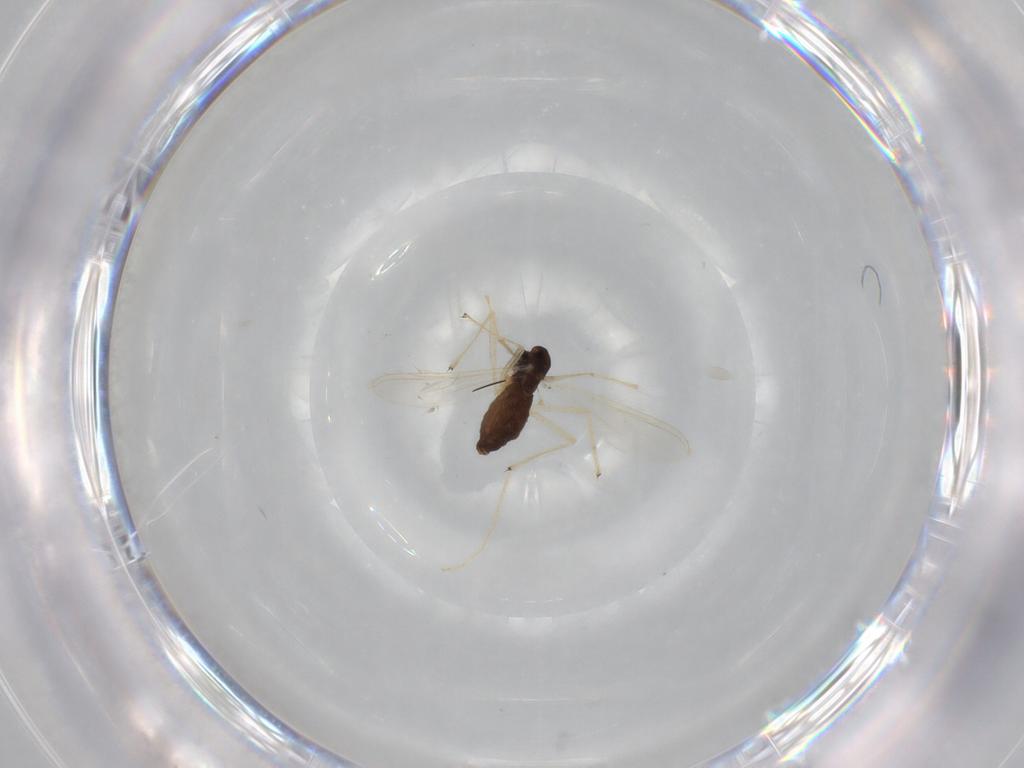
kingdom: Animalia
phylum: Arthropoda
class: Insecta
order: Diptera
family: Chironomidae
